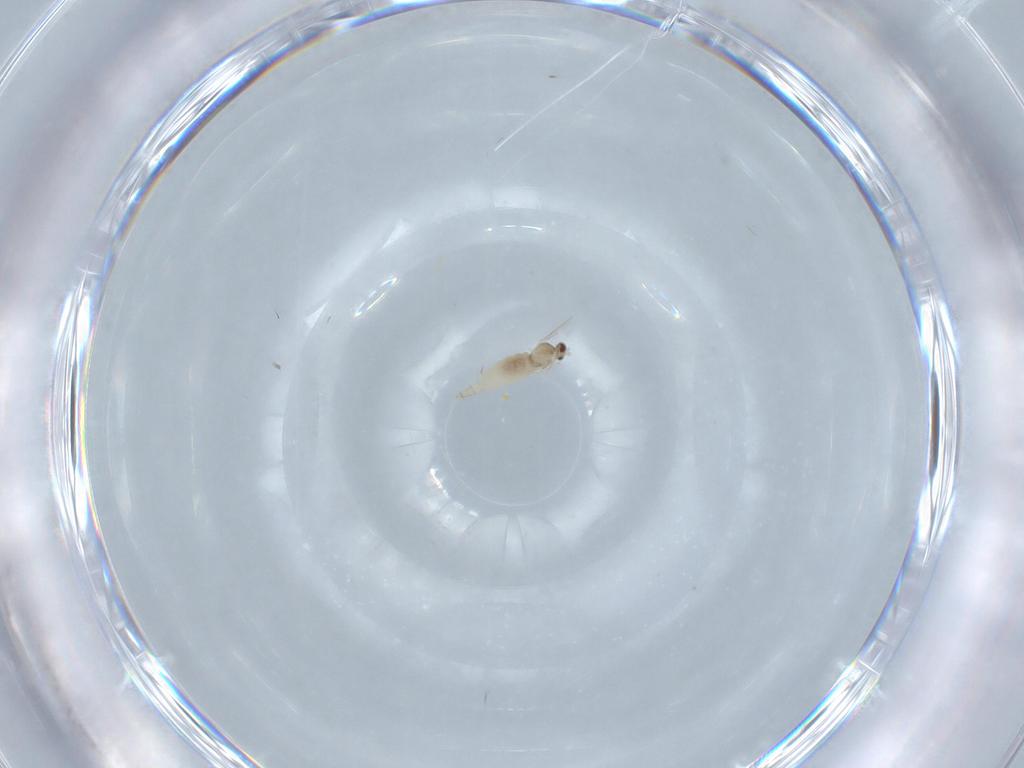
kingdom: Animalia
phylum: Arthropoda
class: Insecta
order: Diptera
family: Cecidomyiidae
